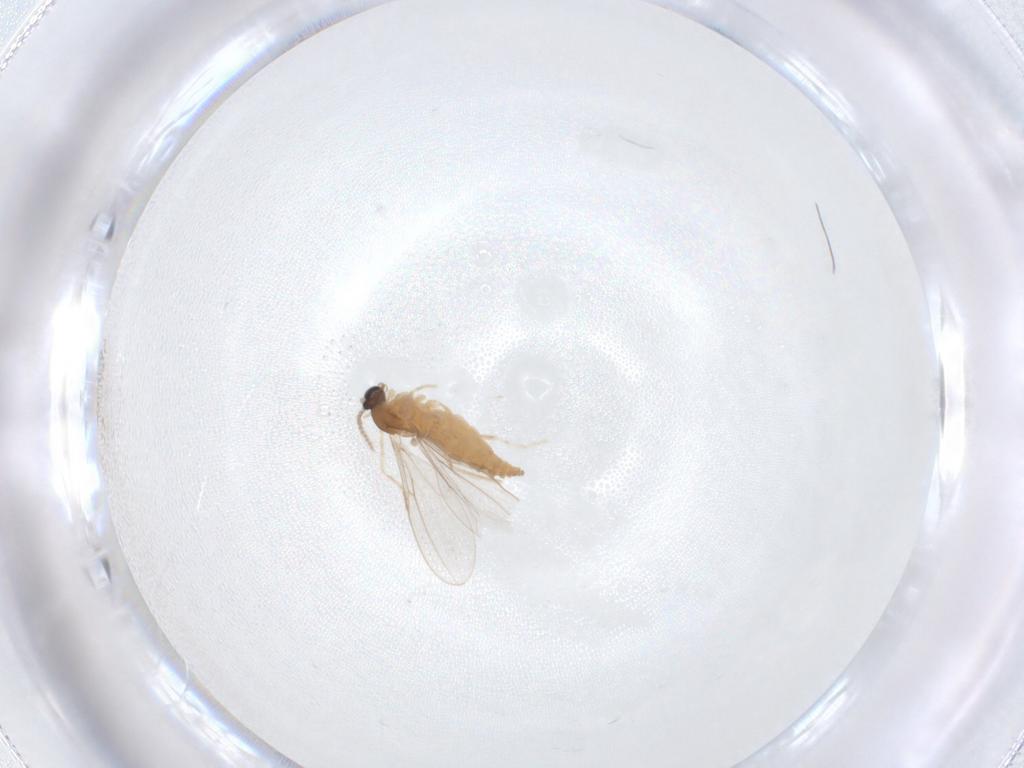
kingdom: Animalia
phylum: Arthropoda
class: Insecta
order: Diptera
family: Cecidomyiidae
